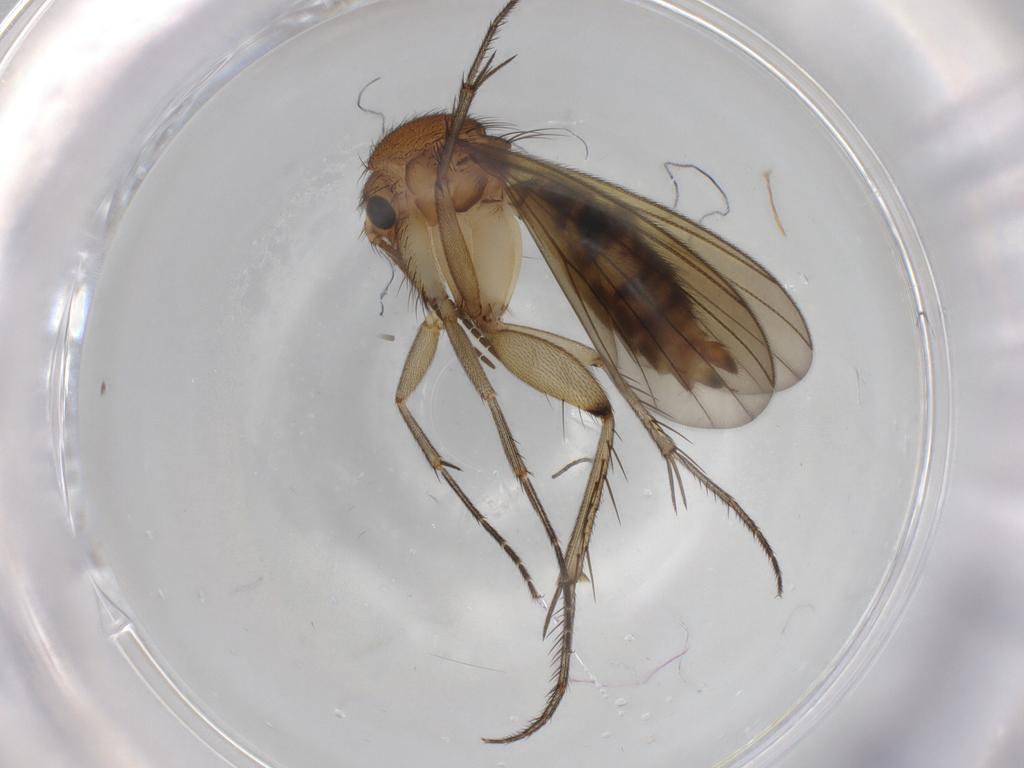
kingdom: Animalia
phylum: Arthropoda
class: Insecta
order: Diptera
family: Mycetophilidae
